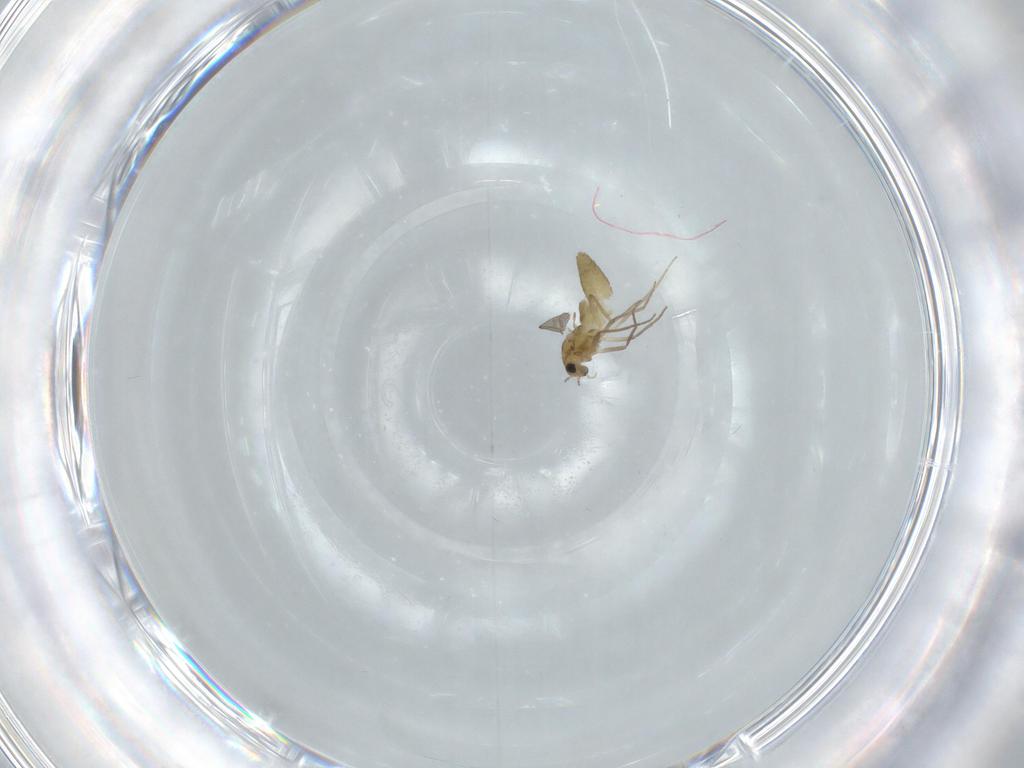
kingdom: Animalia
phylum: Arthropoda
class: Insecta
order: Diptera
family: Chironomidae
